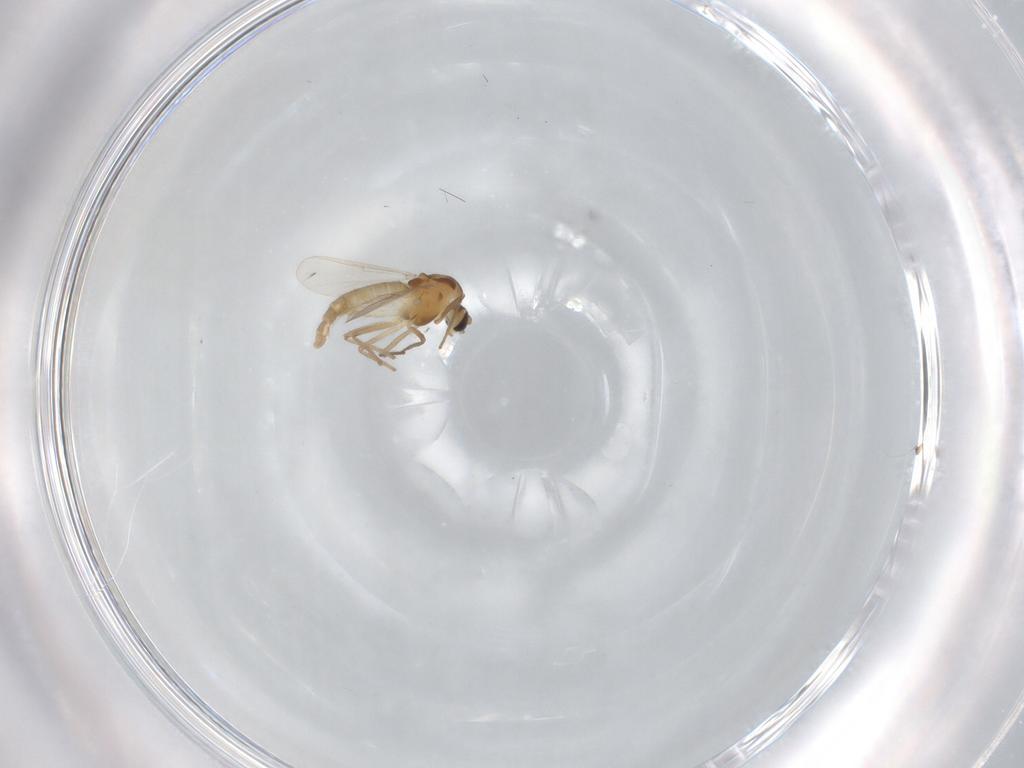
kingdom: Animalia
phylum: Arthropoda
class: Insecta
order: Diptera
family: Chironomidae
